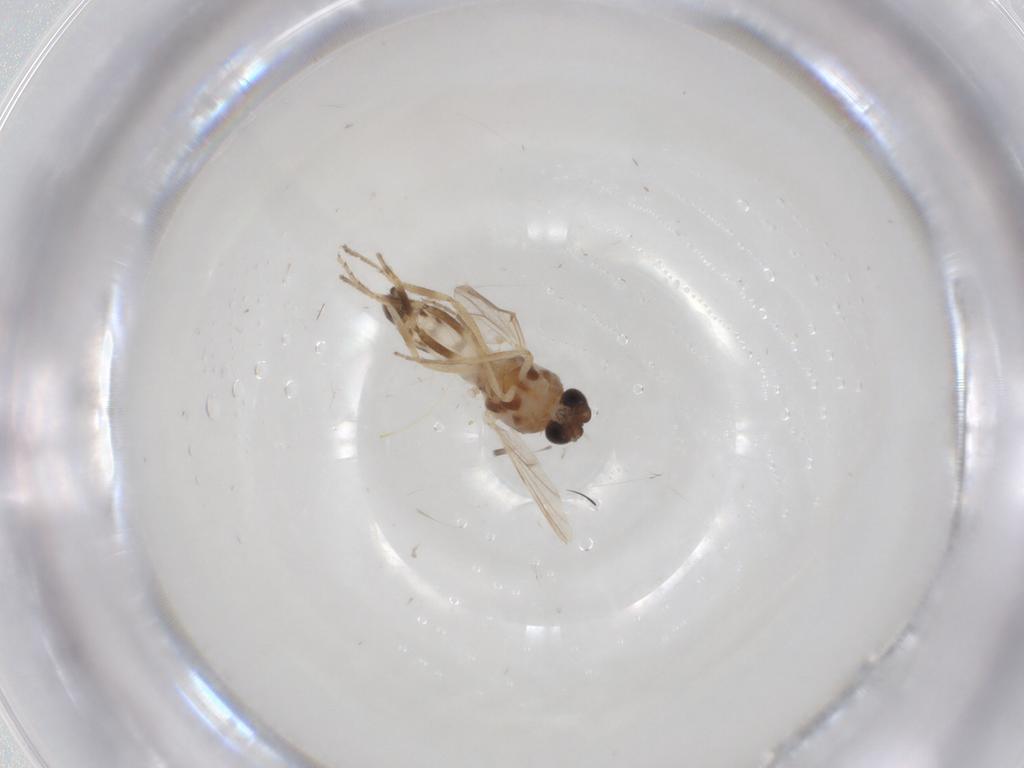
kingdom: Animalia
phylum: Arthropoda
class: Insecta
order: Diptera
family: Ceratopogonidae
